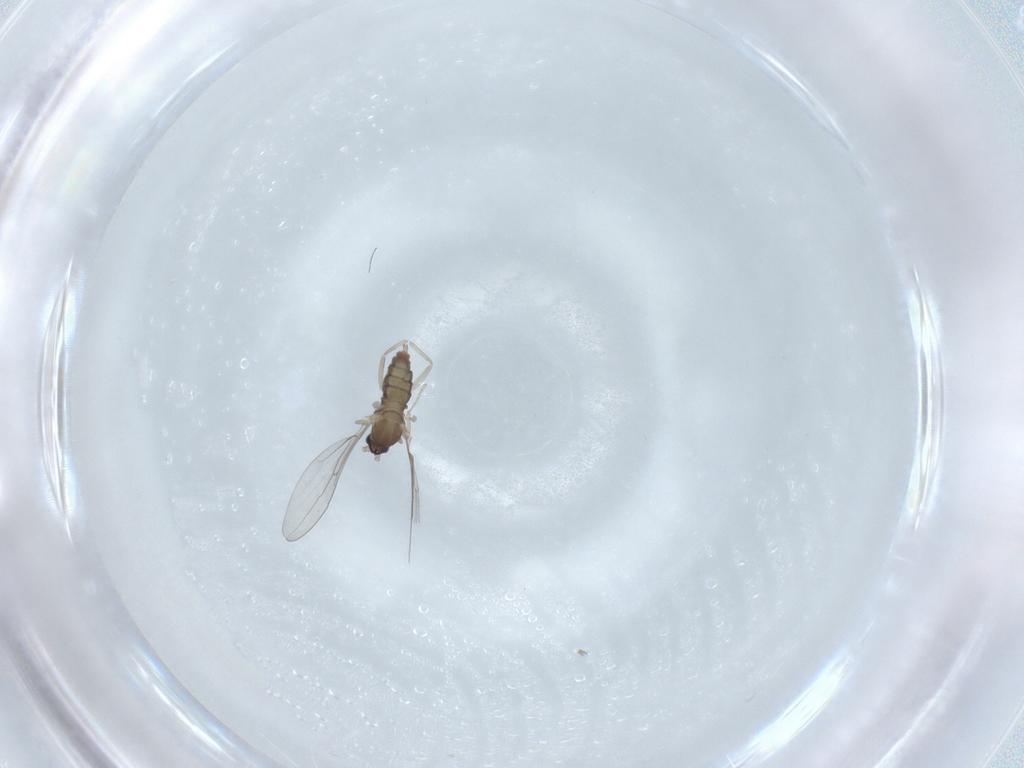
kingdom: Animalia
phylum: Arthropoda
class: Insecta
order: Diptera
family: Cecidomyiidae
